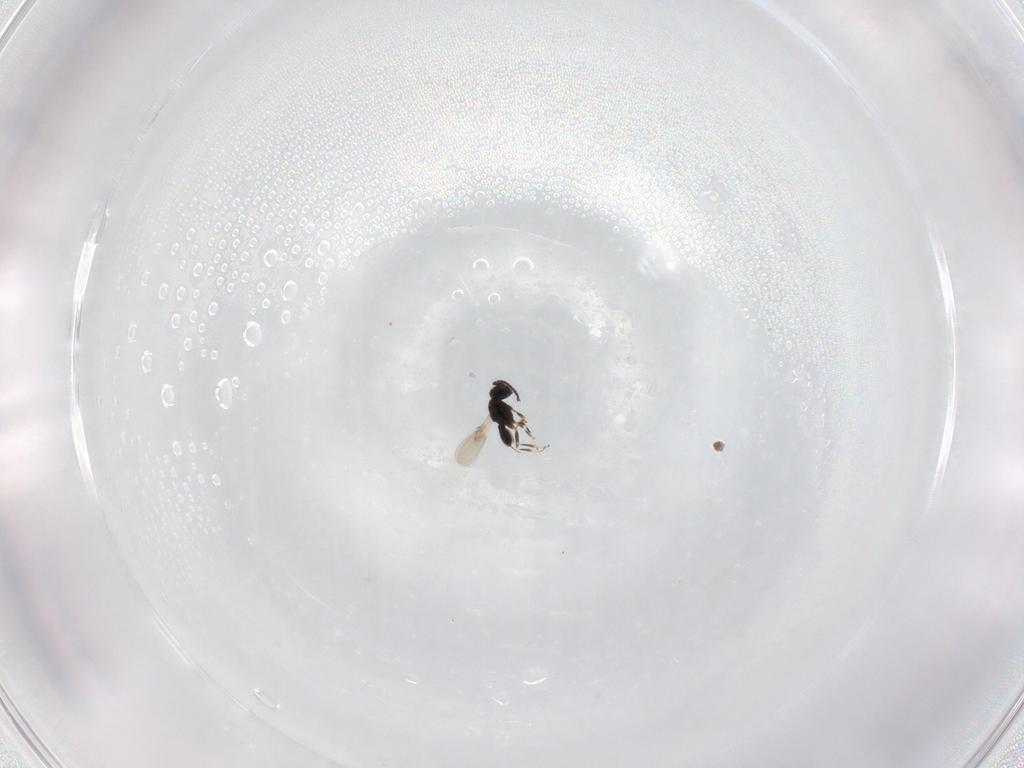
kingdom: Animalia
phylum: Arthropoda
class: Insecta
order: Hymenoptera
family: Scelionidae
